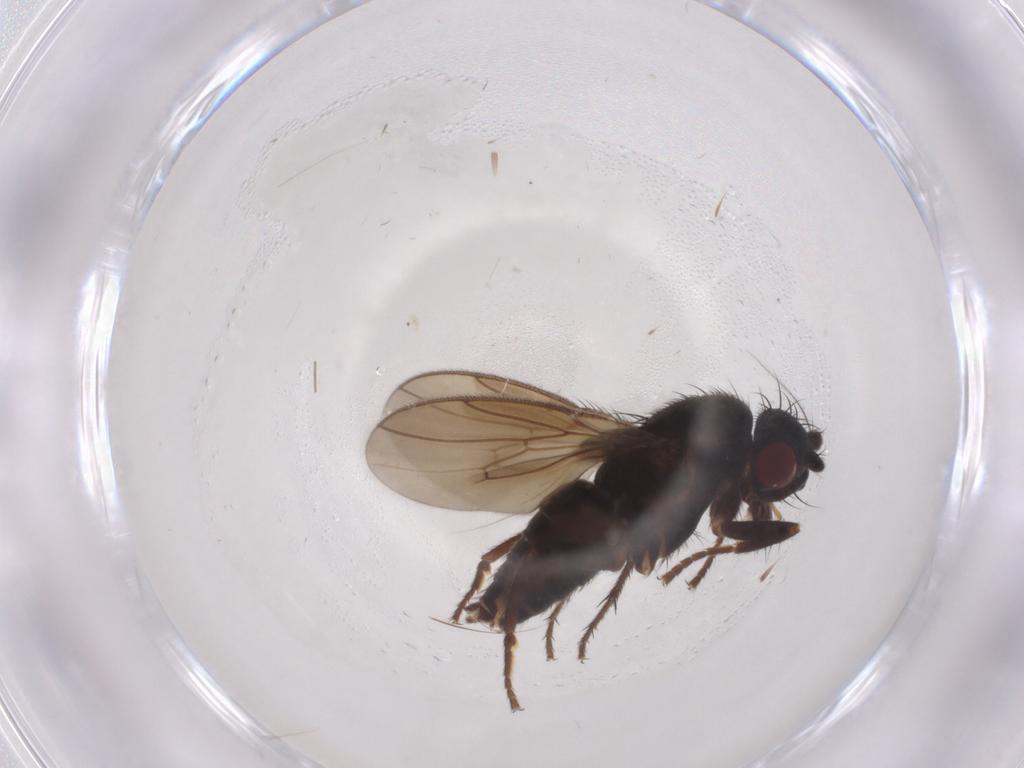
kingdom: Animalia
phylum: Arthropoda
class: Insecta
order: Diptera
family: Sphaeroceridae
